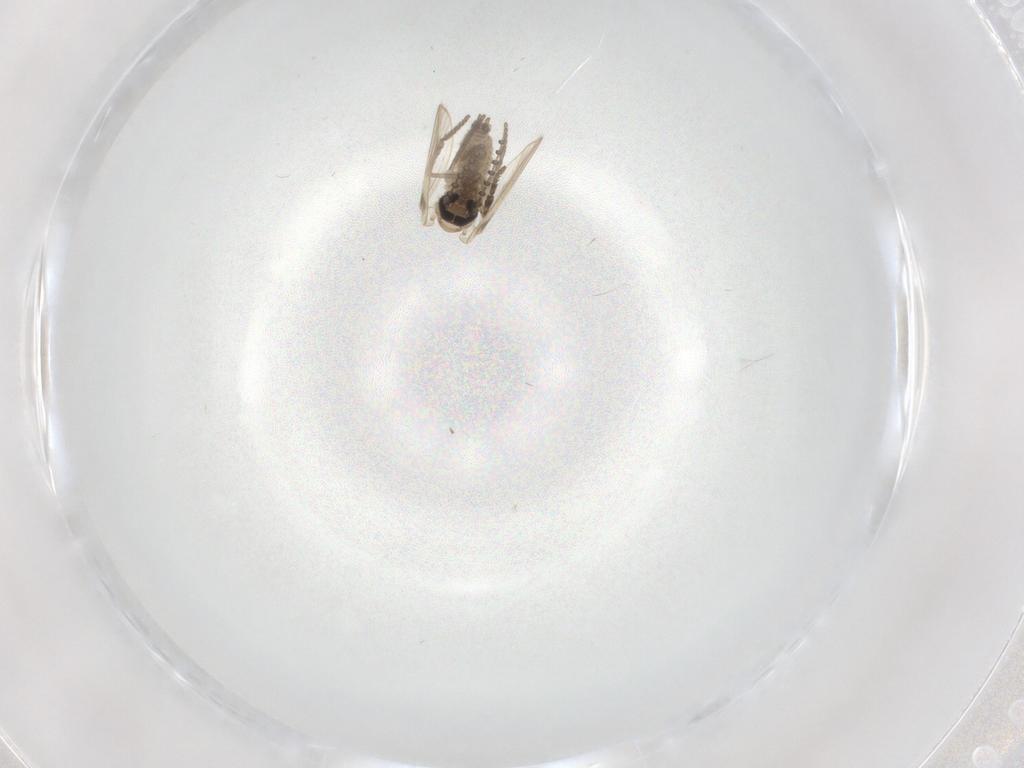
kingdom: Animalia
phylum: Arthropoda
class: Insecta
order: Diptera
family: Psychodidae
